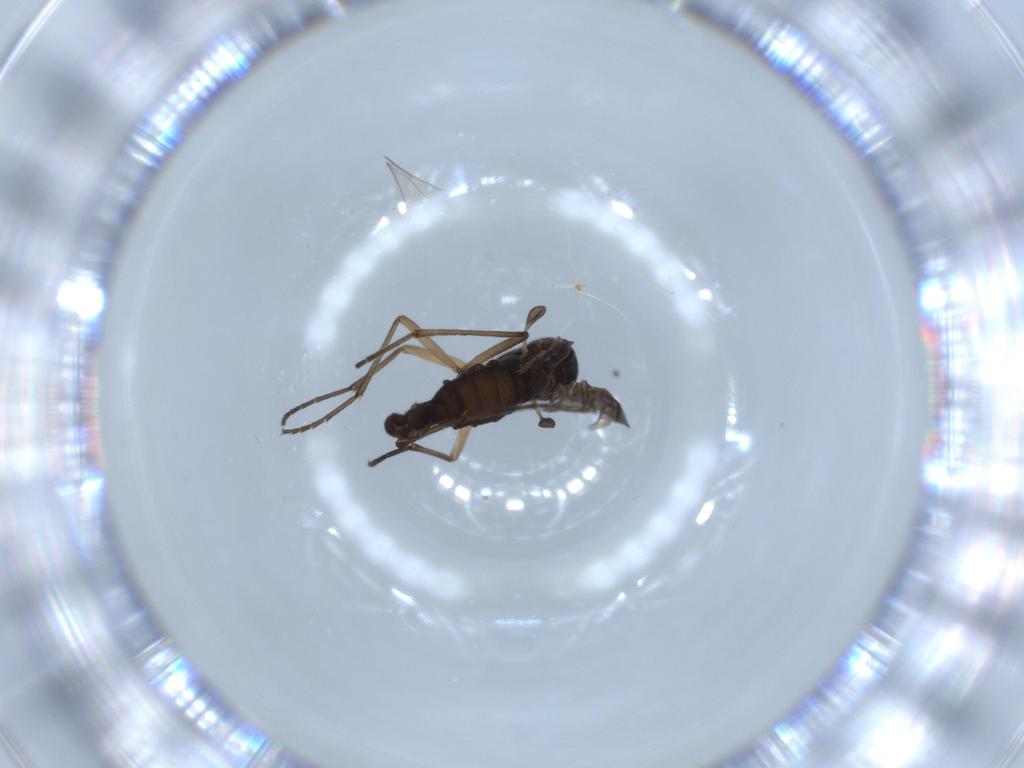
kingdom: Animalia
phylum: Arthropoda
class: Insecta
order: Diptera
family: Sciaridae
